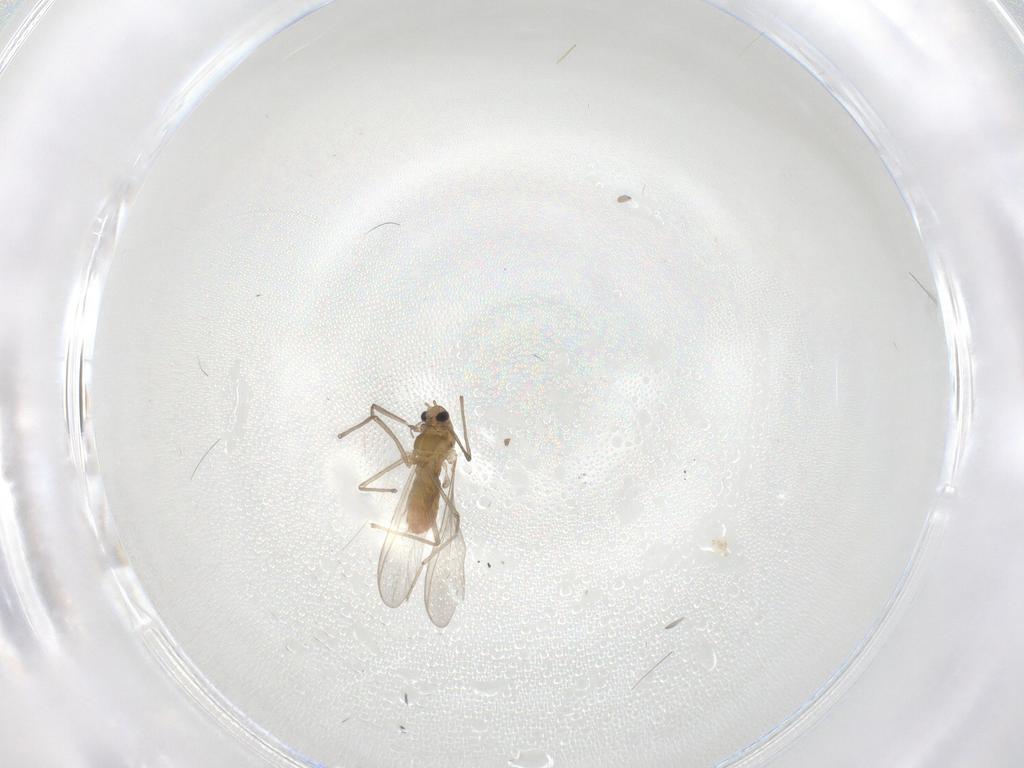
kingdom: Animalia
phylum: Arthropoda
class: Insecta
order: Diptera
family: Chironomidae
